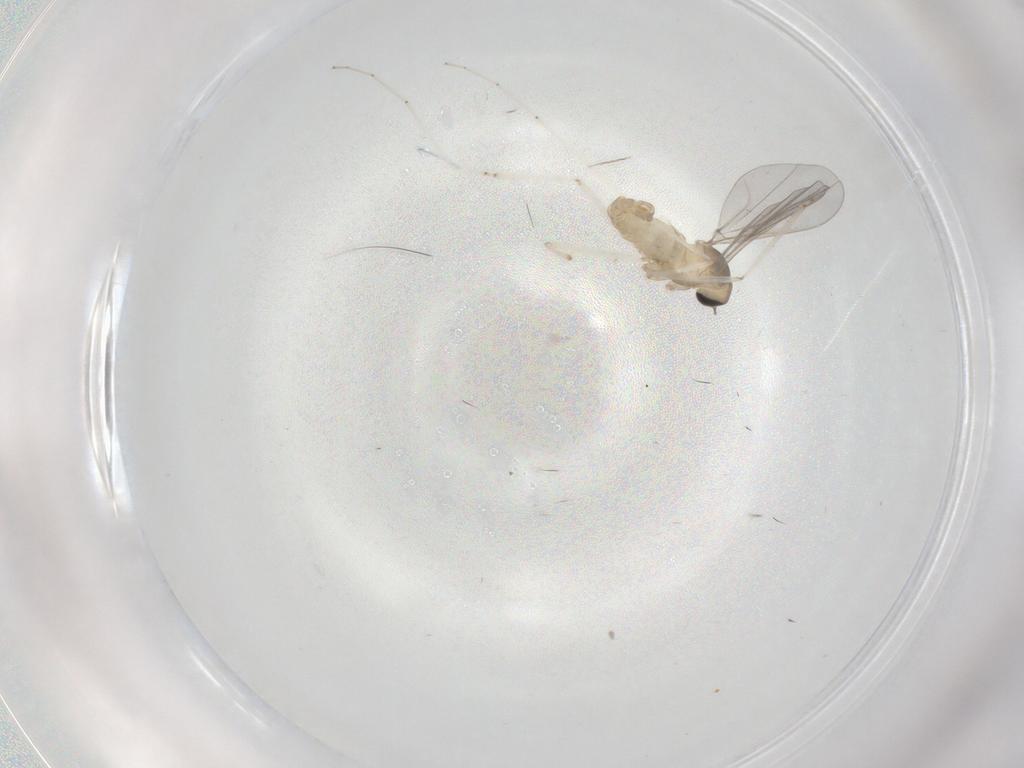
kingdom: Animalia
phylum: Arthropoda
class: Insecta
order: Diptera
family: Cecidomyiidae
